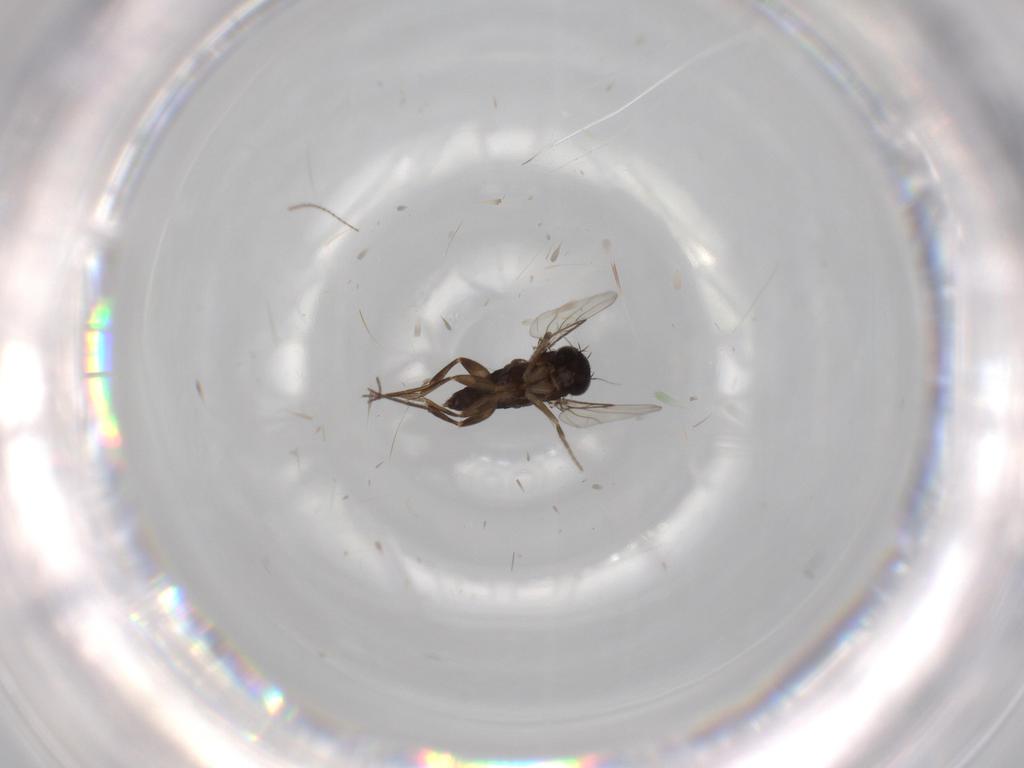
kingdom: Animalia
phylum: Arthropoda
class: Insecta
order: Diptera
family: Phoridae
